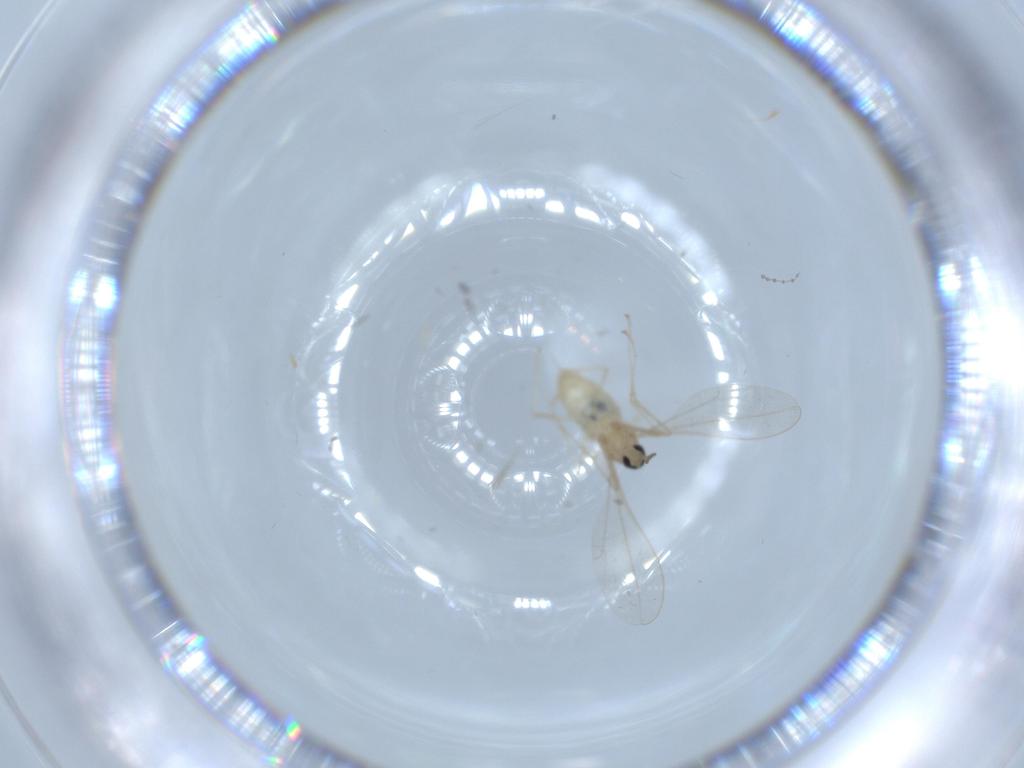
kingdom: Animalia
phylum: Arthropoda
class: Insecta
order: Diptera
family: Cecidomyiidae
